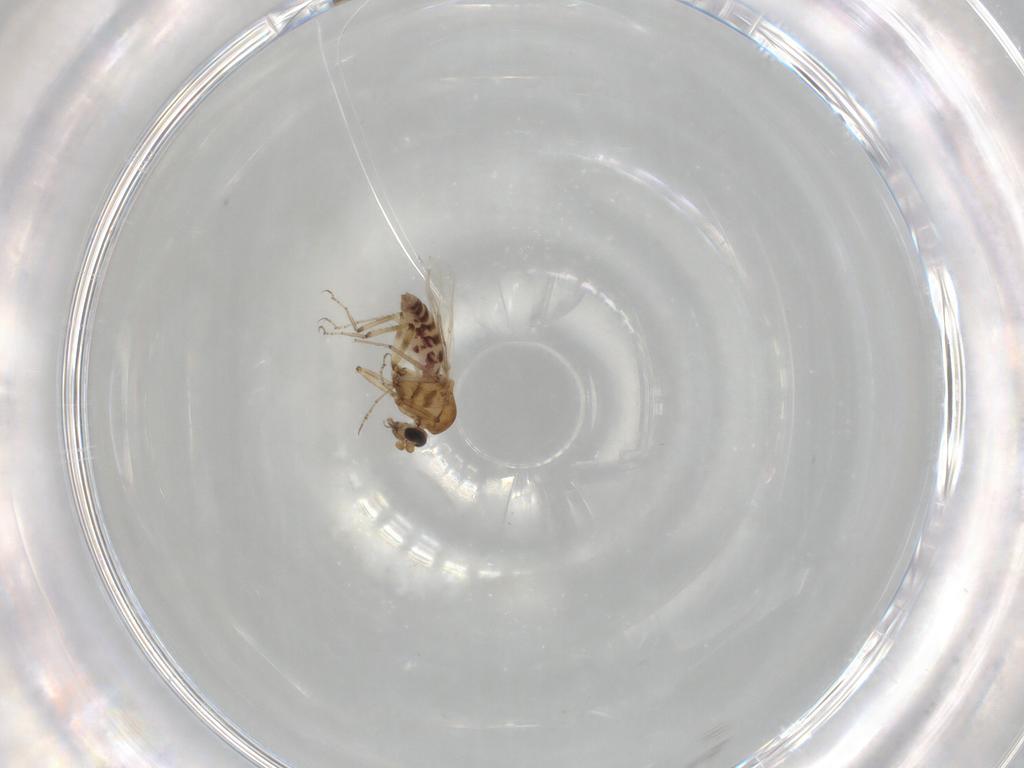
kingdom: Animalia
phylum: Arthropoda
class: Insecta
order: Diptera
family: Ceratopogonidae
